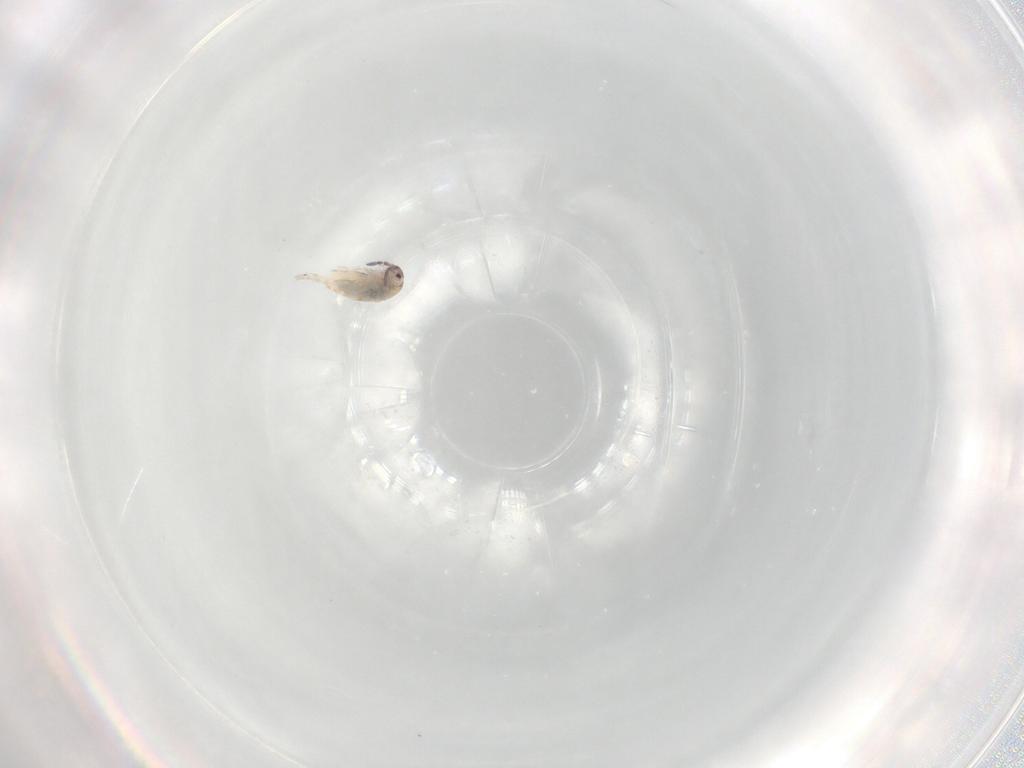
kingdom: Animalia
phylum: Arthropoda
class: Collembola
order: Entomobryomorpha
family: Entomobryidae
